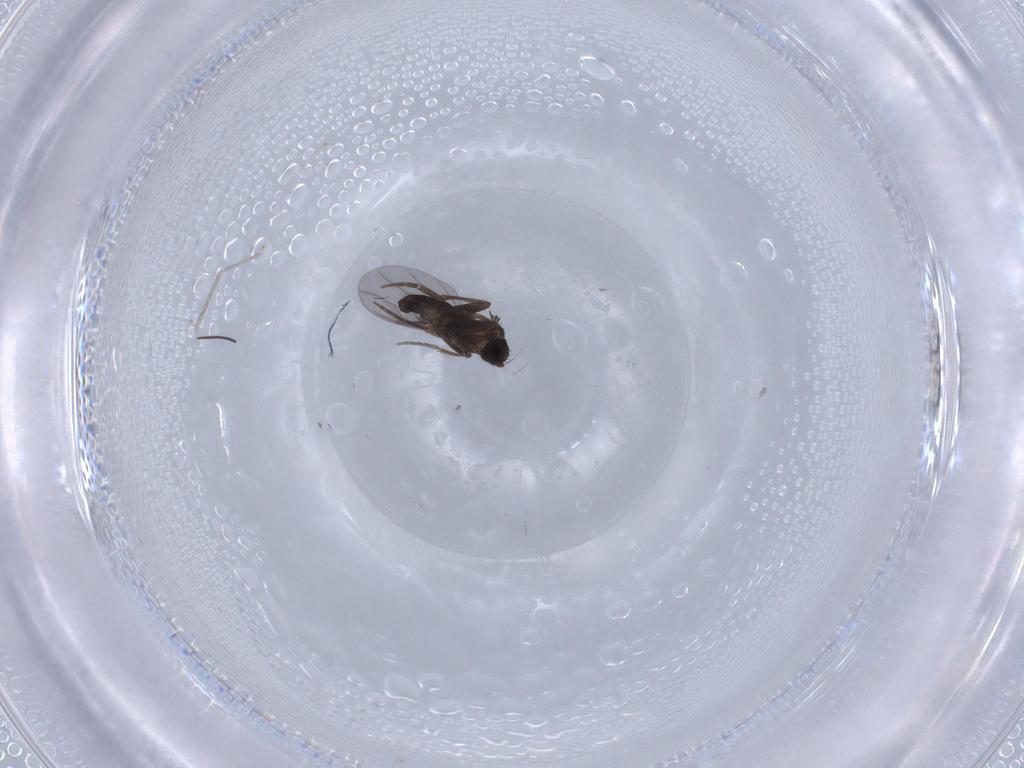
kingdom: Animalia
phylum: Arthropoda
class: Insecta
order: Diptera
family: Phoridae
